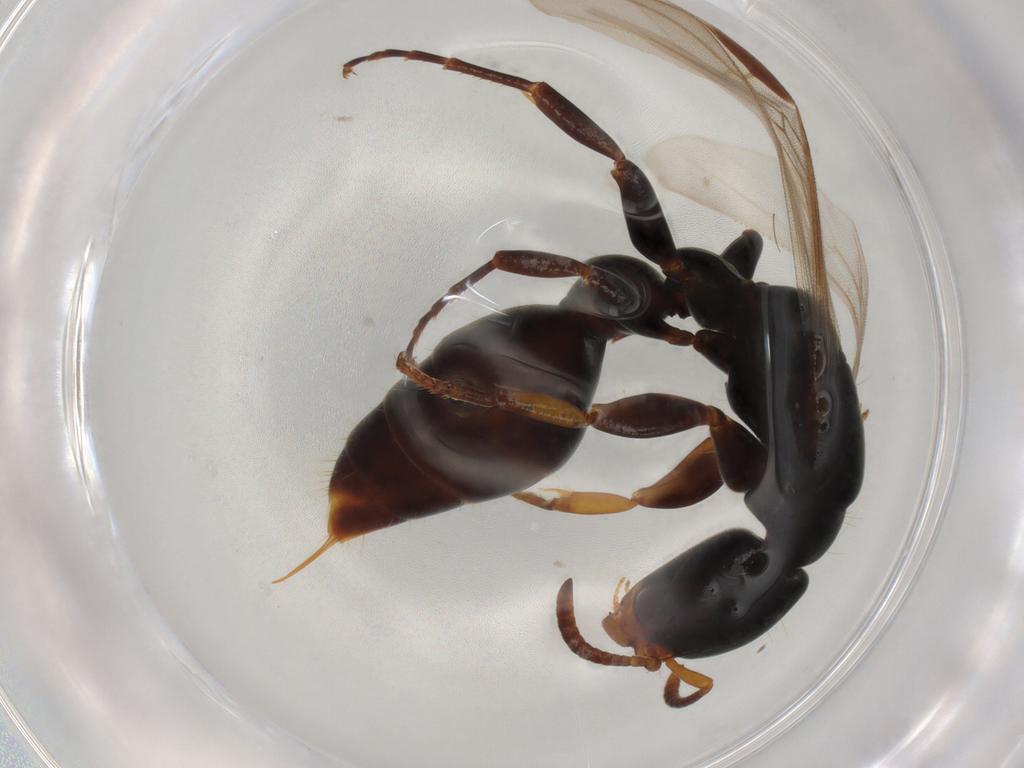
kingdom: Animalia
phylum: Arthropoda
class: Insecta
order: Hymenoptera
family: Formicidae
